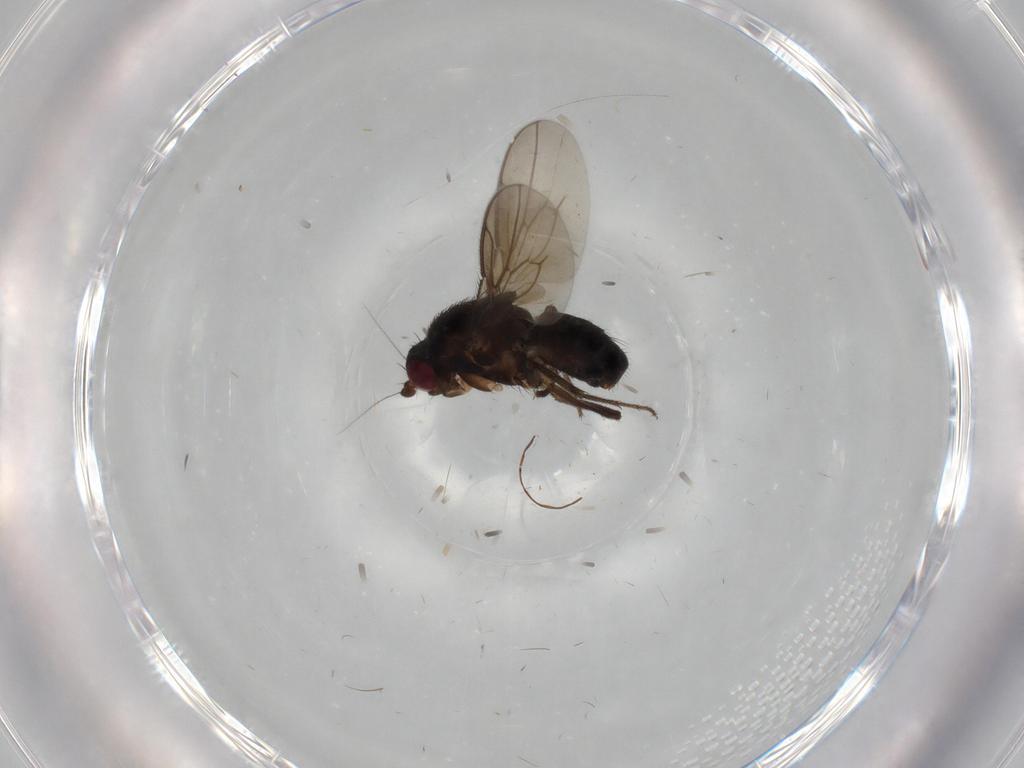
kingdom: Animalia
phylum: Arthropoda
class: Insecta
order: Diptera
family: Sphaeroceridae
